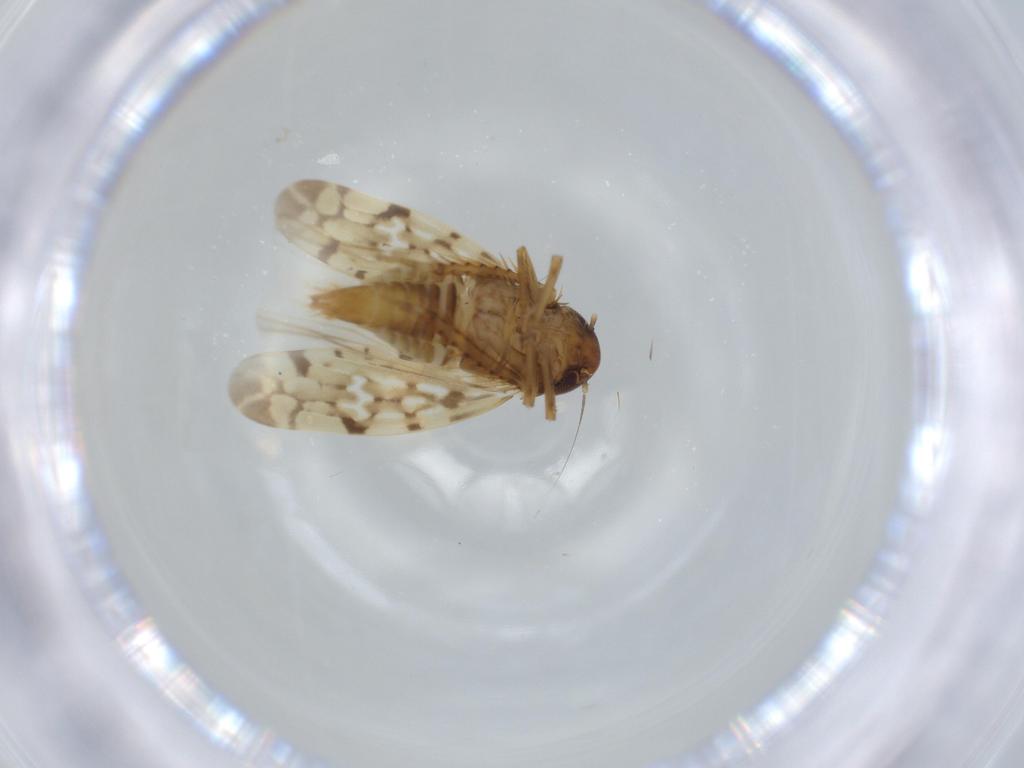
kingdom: Animalia
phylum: Arthropoda
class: Insecta
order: Hemiptera
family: Cicadellidae
